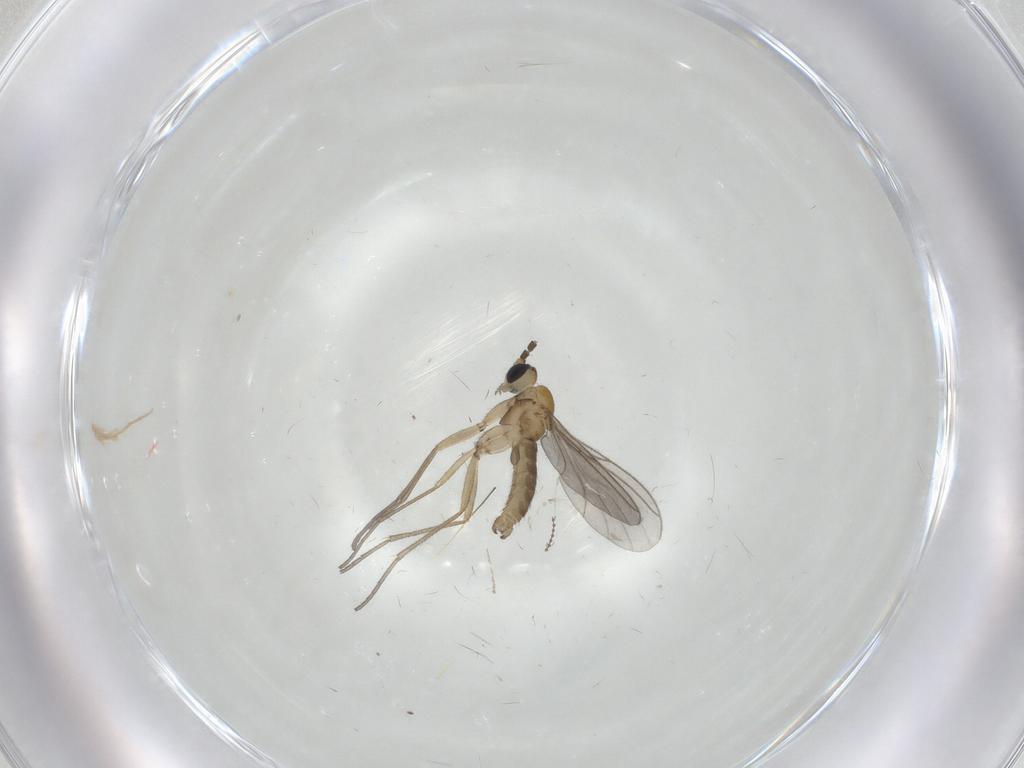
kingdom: Animalia
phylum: Arthropoda
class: Insecta
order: Diptera
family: Sciaridae
